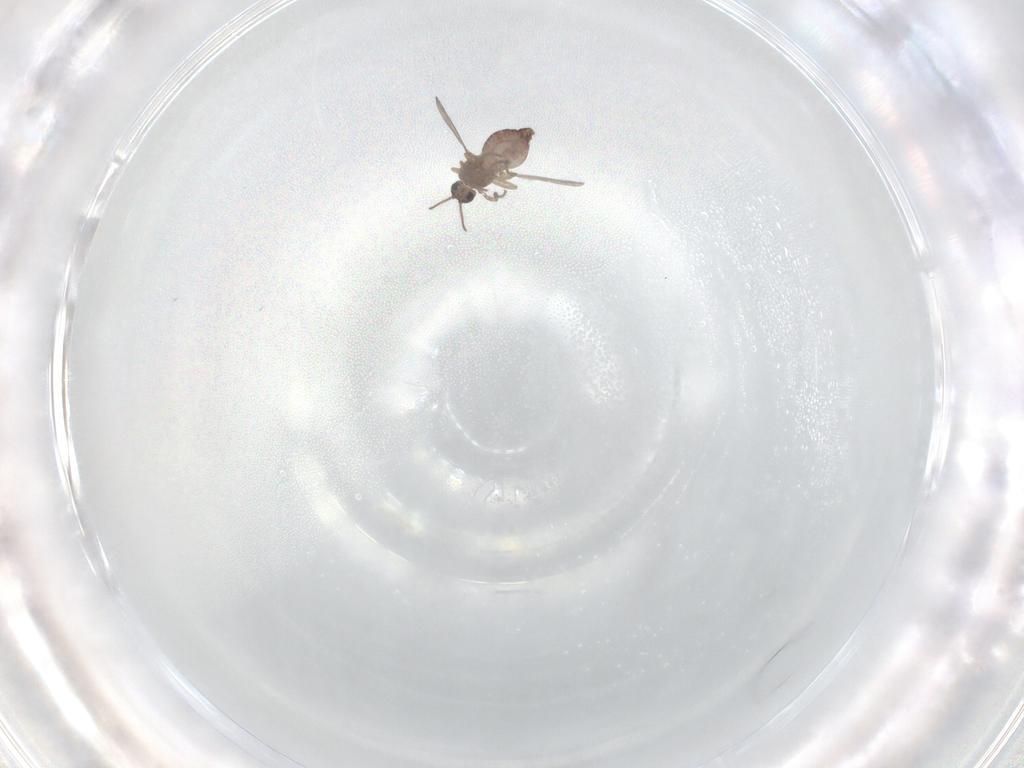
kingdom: Animalia
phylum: Arthropoda
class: Insecta
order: Diptera
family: Ceratopogonidae
